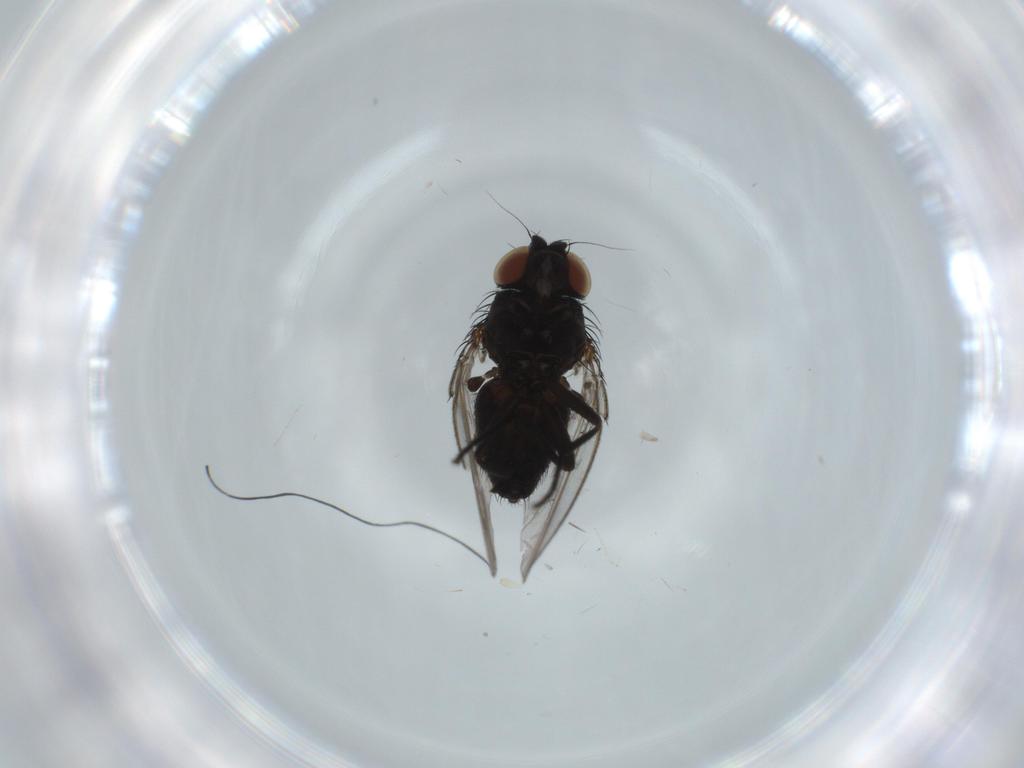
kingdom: Animalia
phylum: Arthropoda
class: Insecta
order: Diptera
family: Milichiidae
